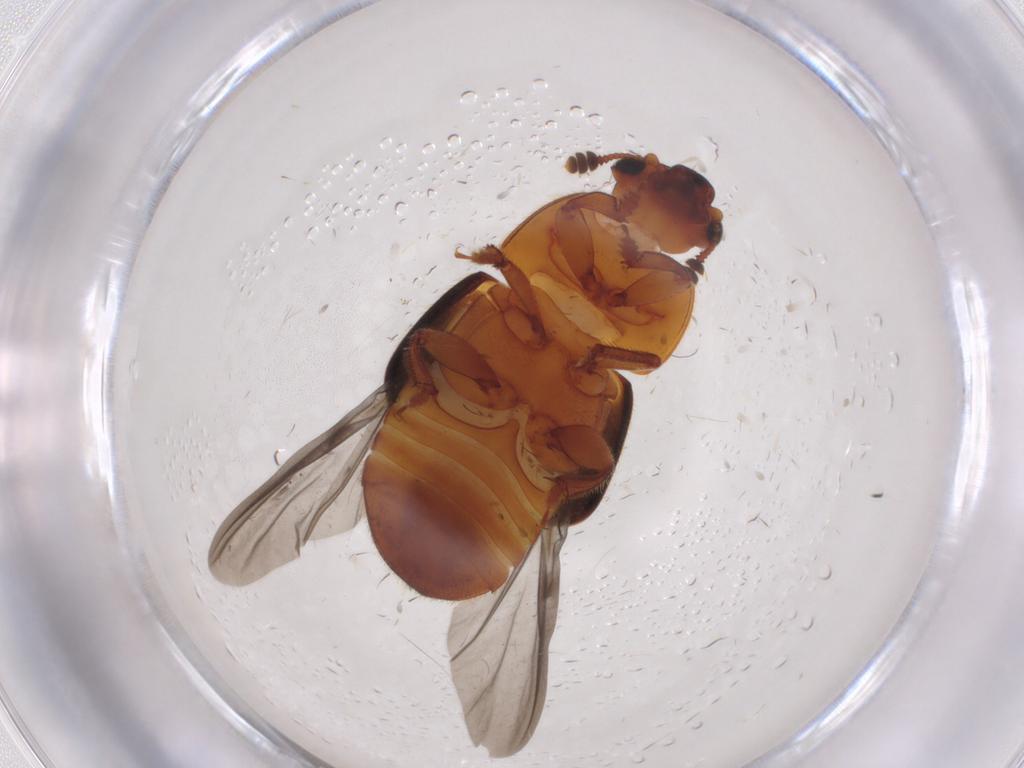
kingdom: Animalia
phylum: Arthropoda
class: Insecta
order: Coleoptera
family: Nitidulidae
